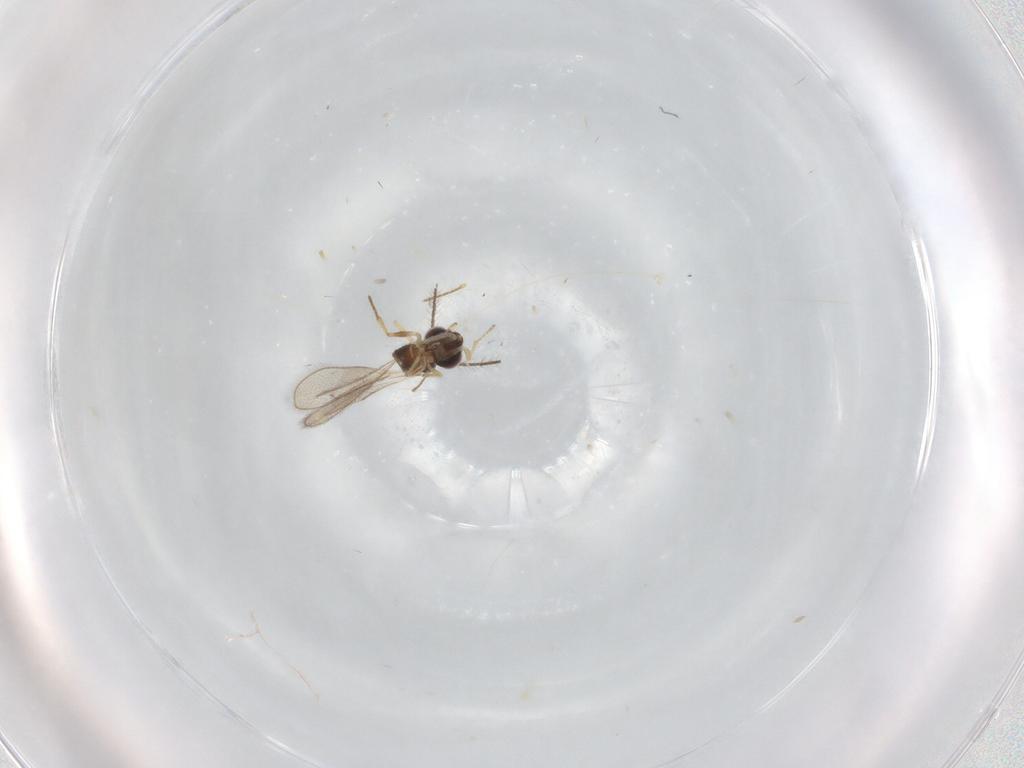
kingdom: Animalia
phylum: Arthropoda
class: Insecta
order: Hymenoptera
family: Eulophidae
